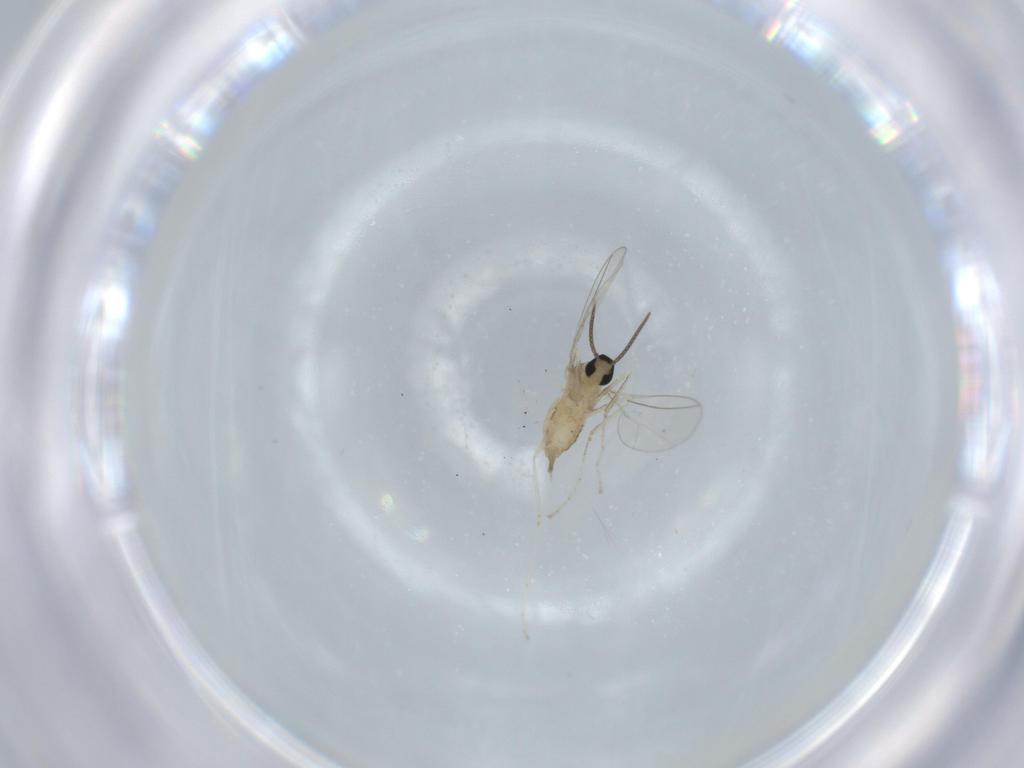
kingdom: Animalia
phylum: Arthropoda
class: Insecta
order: Diptera
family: Cecidomyiidae
